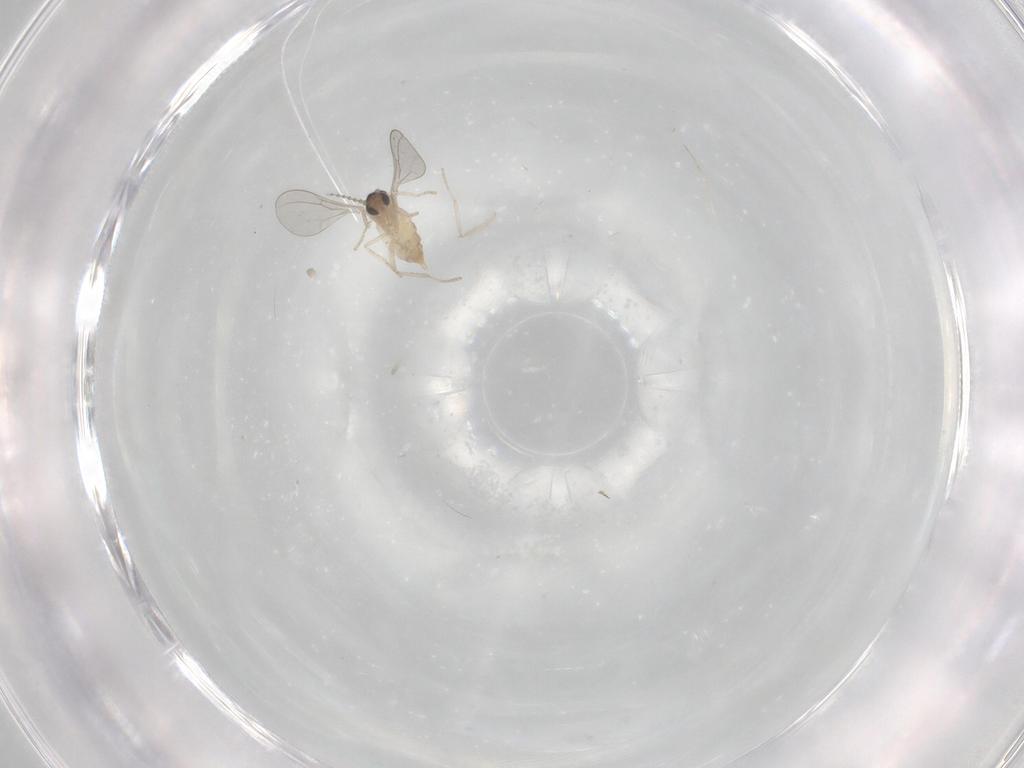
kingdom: Animalia
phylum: Arthropoda
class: Insecta
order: Diptera
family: Cecidomyiidae
